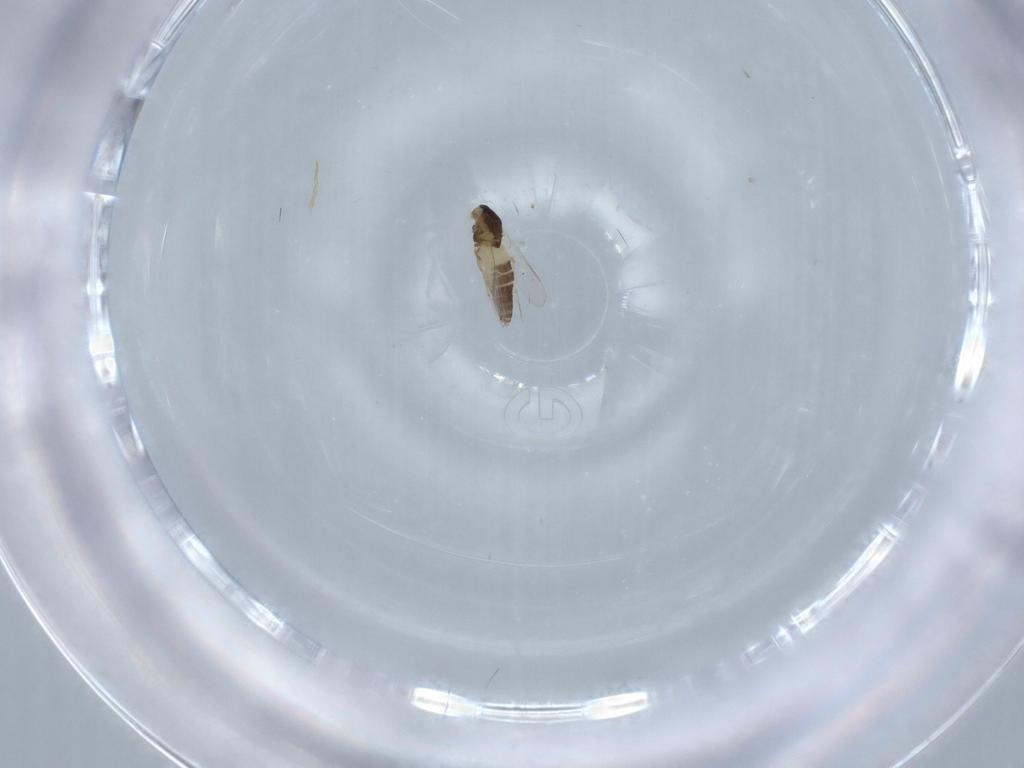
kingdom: Animalia
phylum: Arthropoda
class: Insecta
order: Diptera
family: Chironomidae
